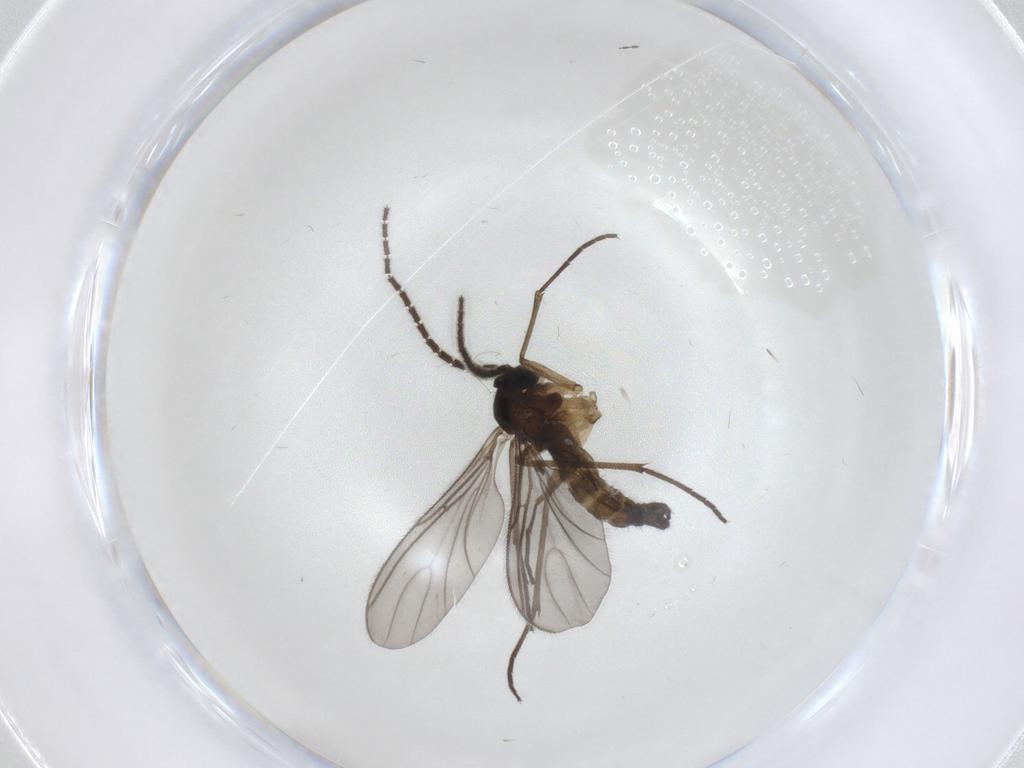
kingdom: Animalia
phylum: Arthropoda
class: Insecta
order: Diptera
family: Sciaridae
